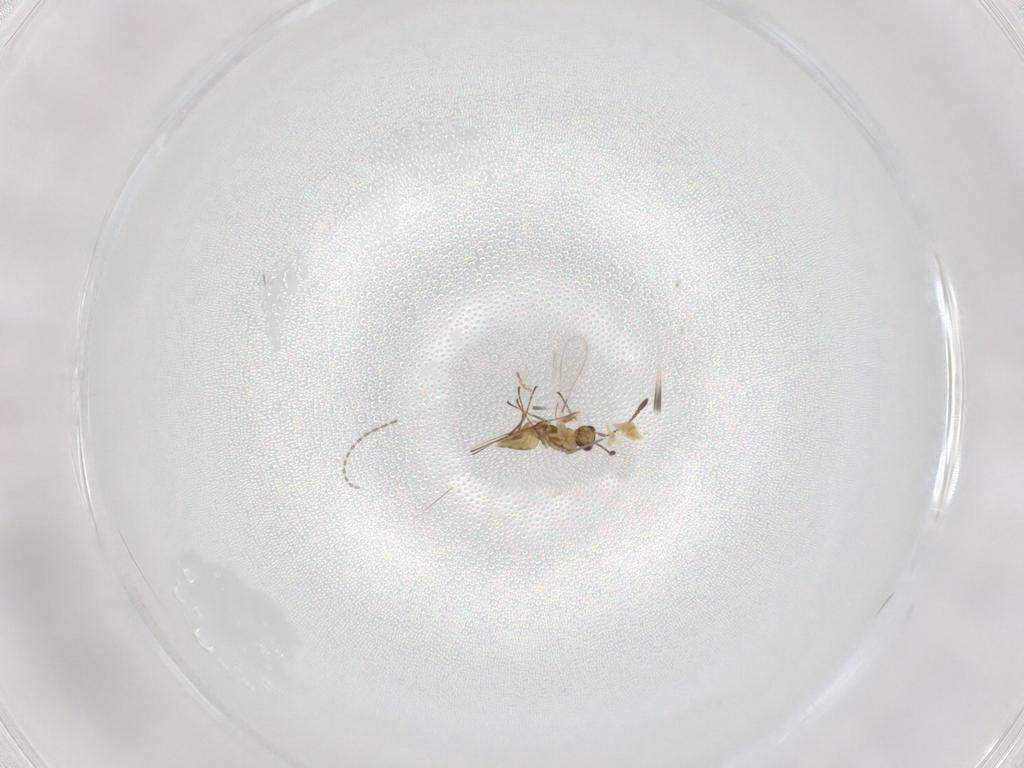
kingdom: Animalia
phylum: Arthropoda
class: Insecta
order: Hymenoptera
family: Mymaridae
